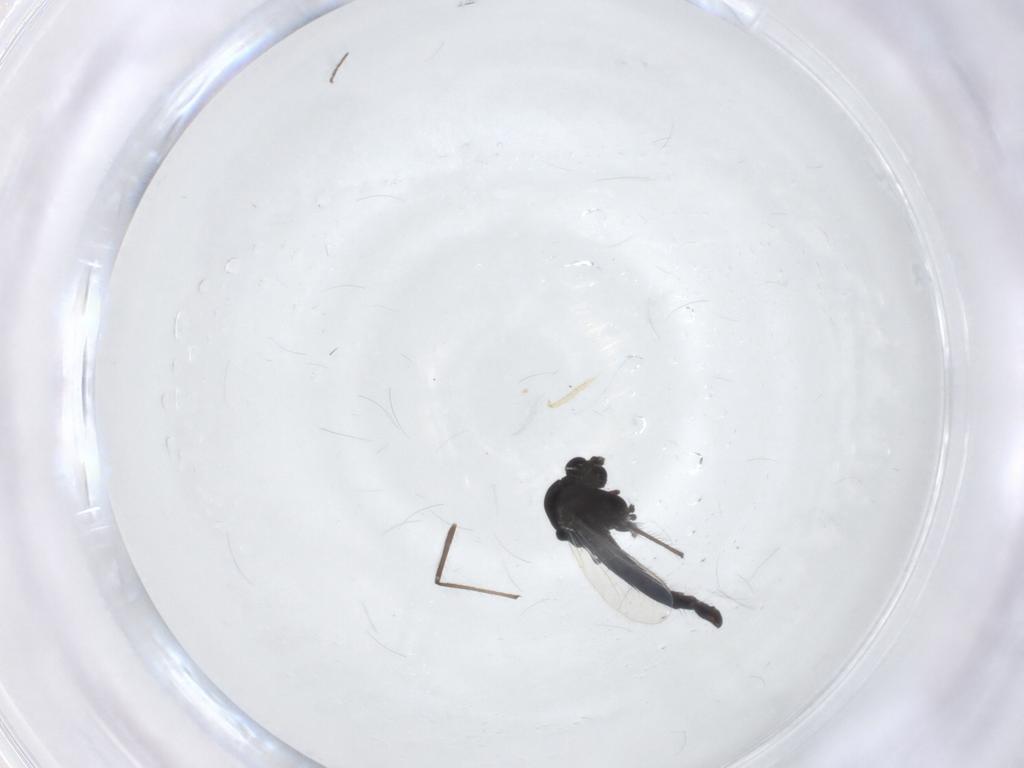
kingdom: Animalia
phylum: Arthropoda
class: Insecta
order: Diptera
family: Chironomidae
